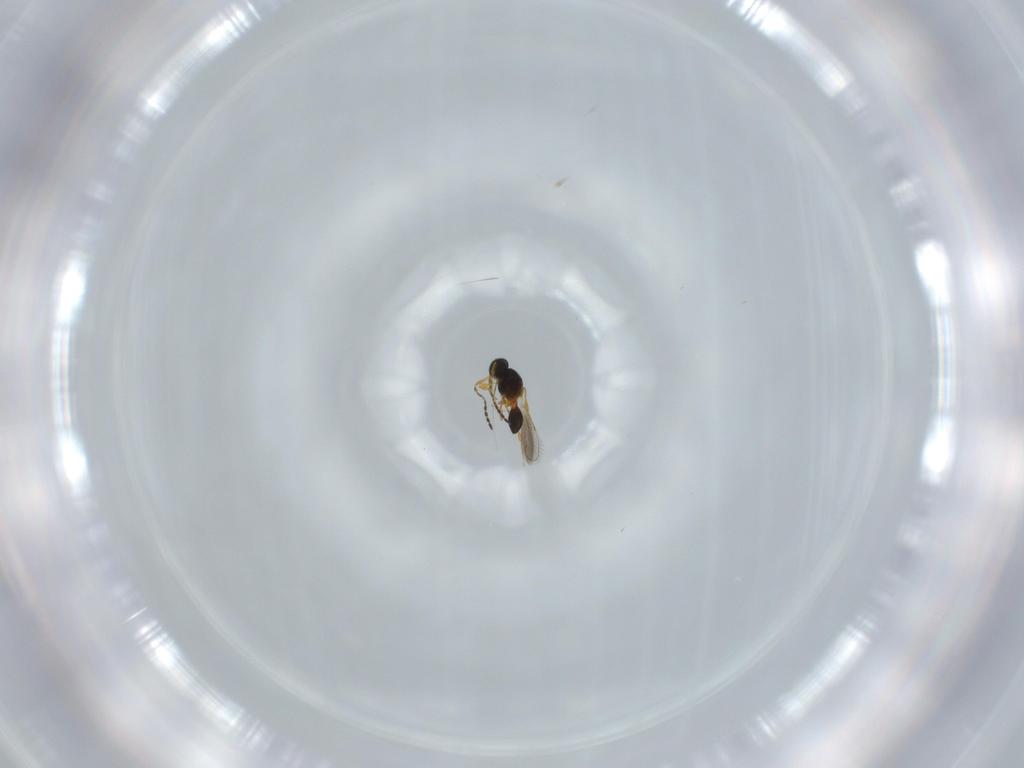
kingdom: Animalia
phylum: Arthropoda
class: Insecta
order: Hymenoptera
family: Platygastridae
